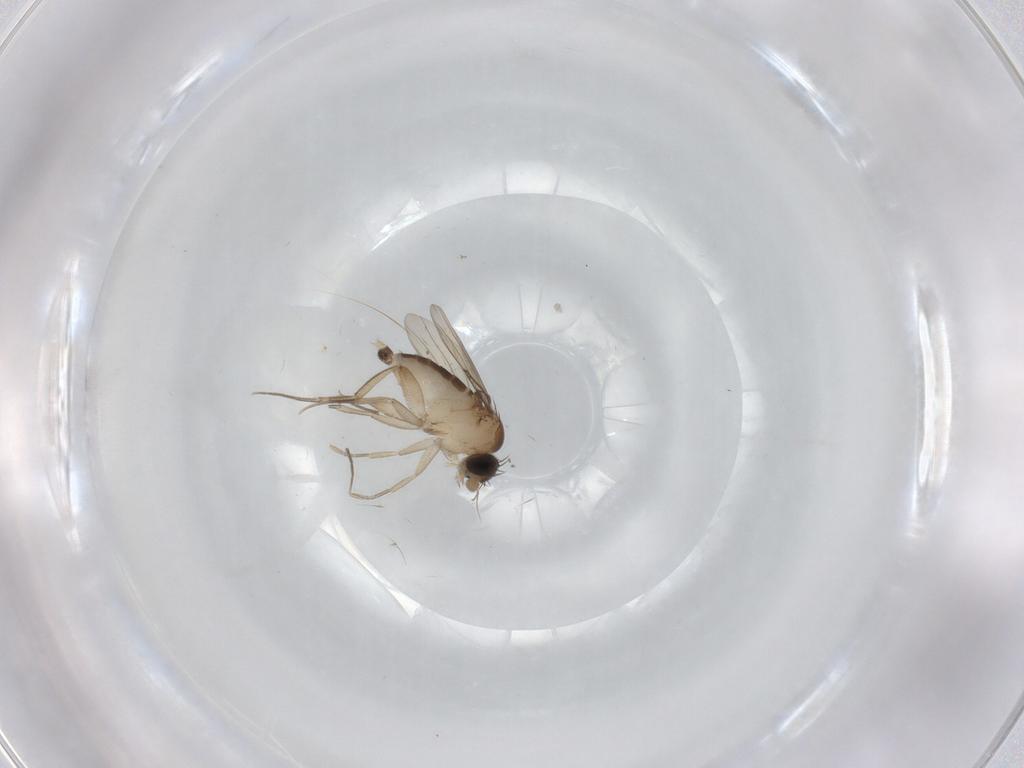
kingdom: Animalia
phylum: Arthropoda
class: Insecta
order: Diptera
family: Phoridae
